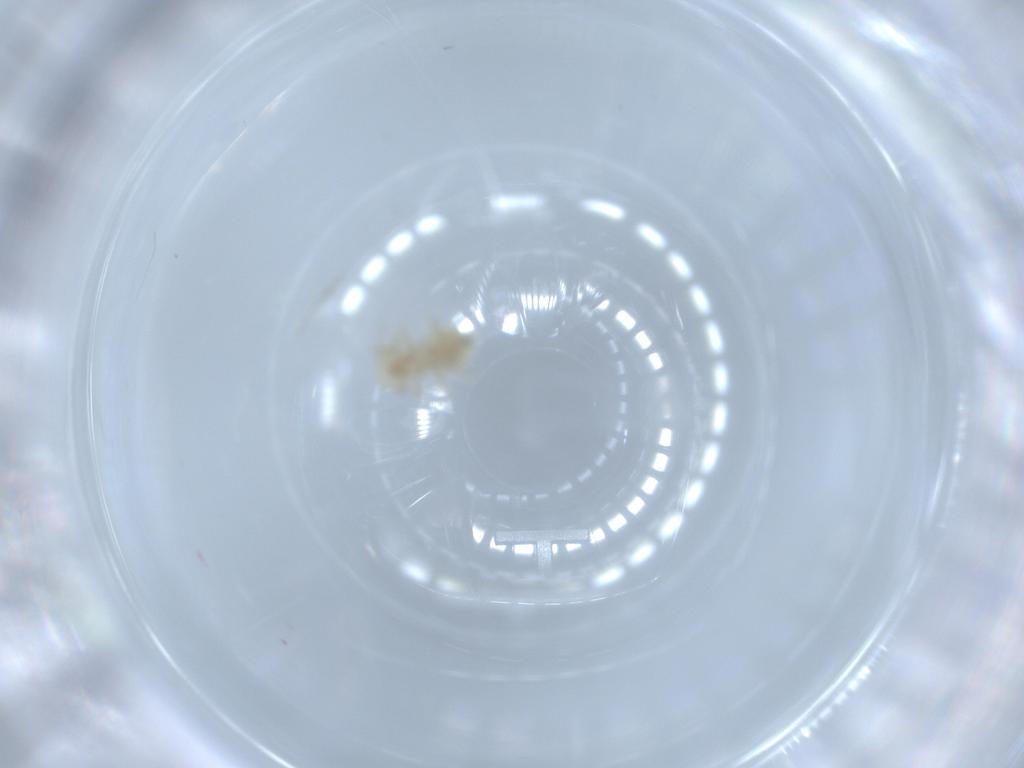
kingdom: Animalia
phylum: Arthropoda
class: Insecta
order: Psocodea
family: Caeciliusidae
